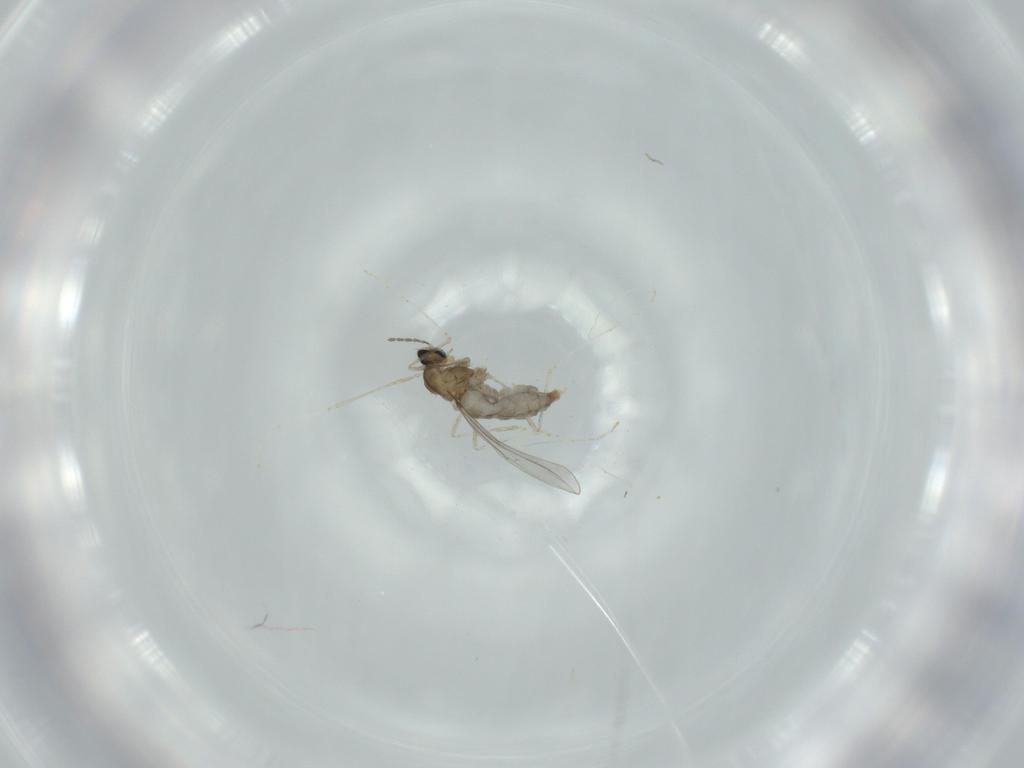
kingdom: Animalia
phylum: Arthropoda
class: Insecta
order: Diptera
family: Cecidomyiidae
